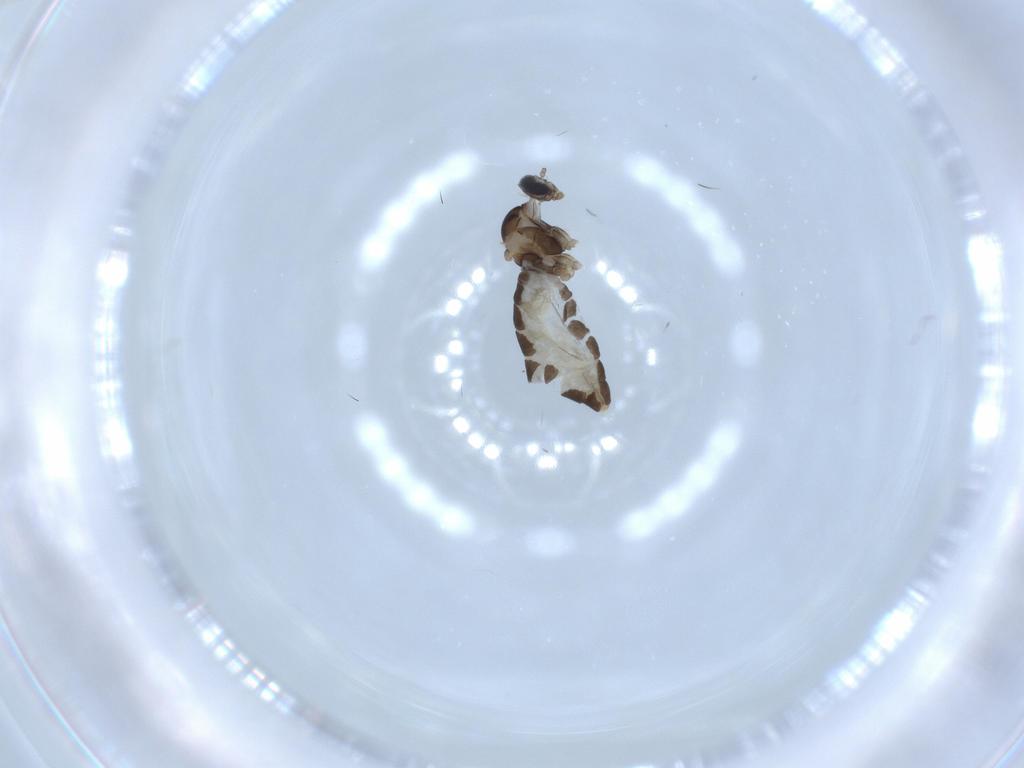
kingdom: Animalia
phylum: Arthropoda
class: Insecta
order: Diptera
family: Cecidomyiidae
